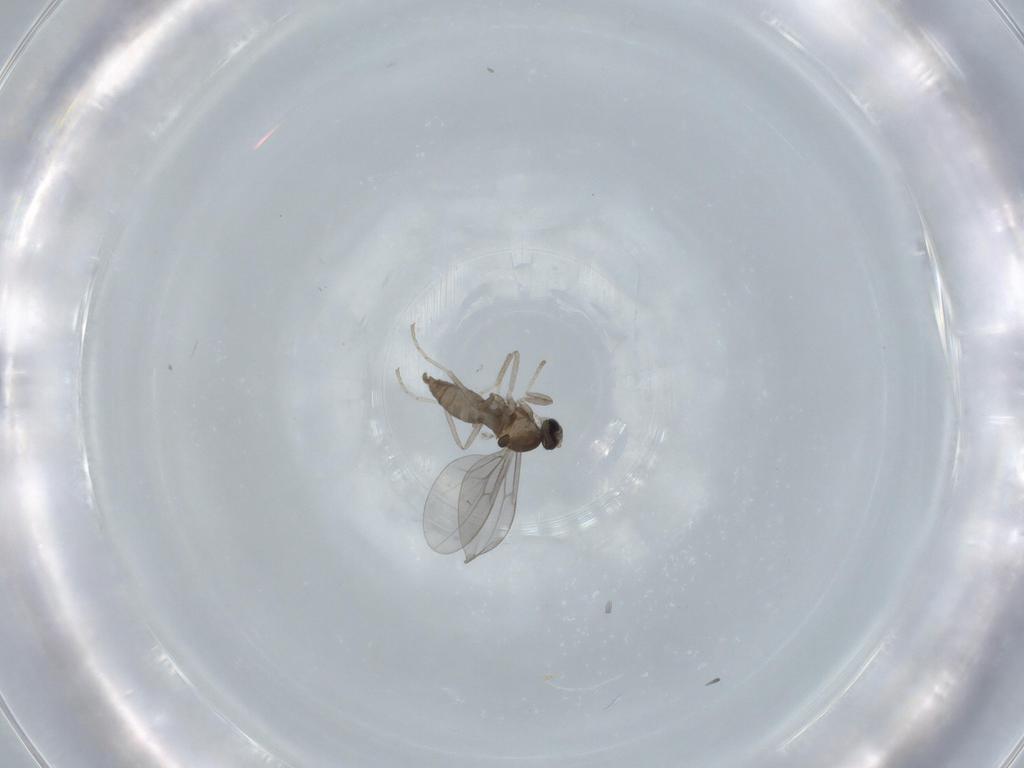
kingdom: Animalia
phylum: Arthropoda
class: Insecta
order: Diptera
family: Cecidomyiidae
